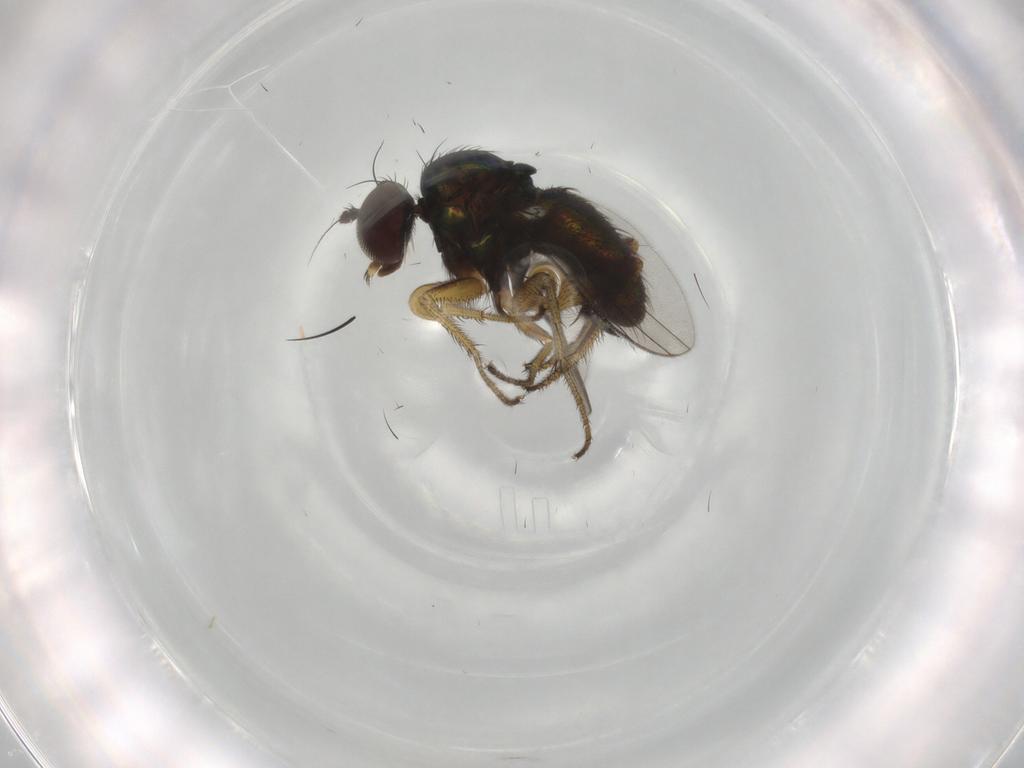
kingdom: Animalia
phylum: Arthropoda
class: Insecta
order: Diptera
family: Dolichopodidae
